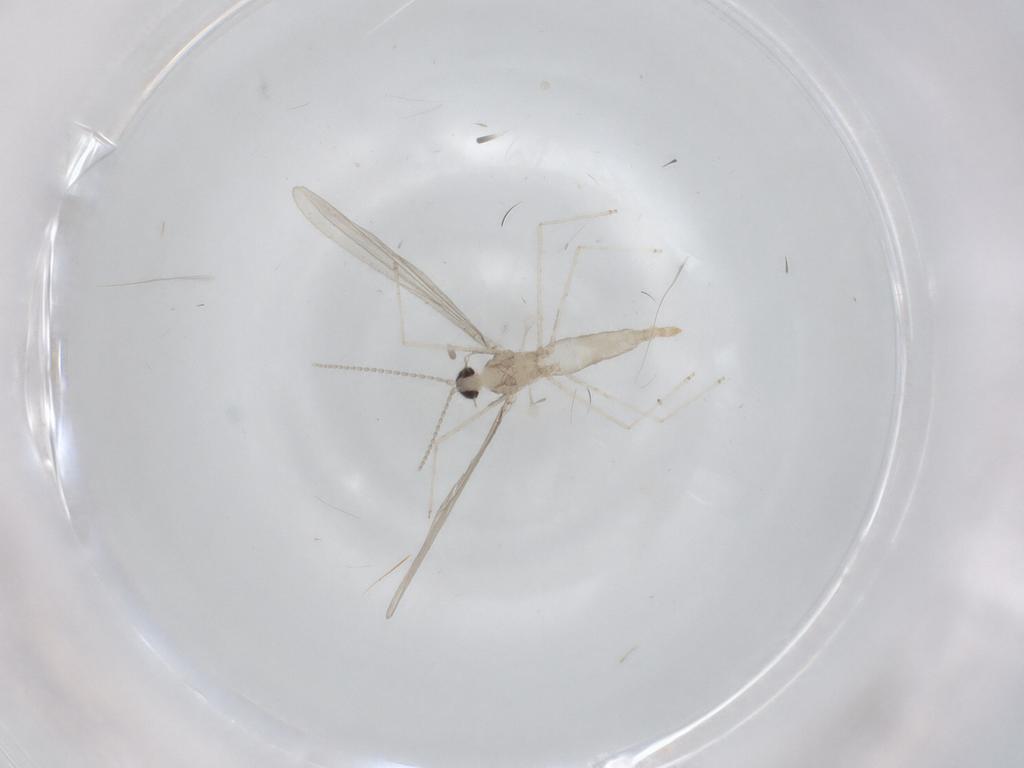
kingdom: Animalia
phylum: Arthropoda
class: Insecta
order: Diptera
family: Cecidomyiidae
